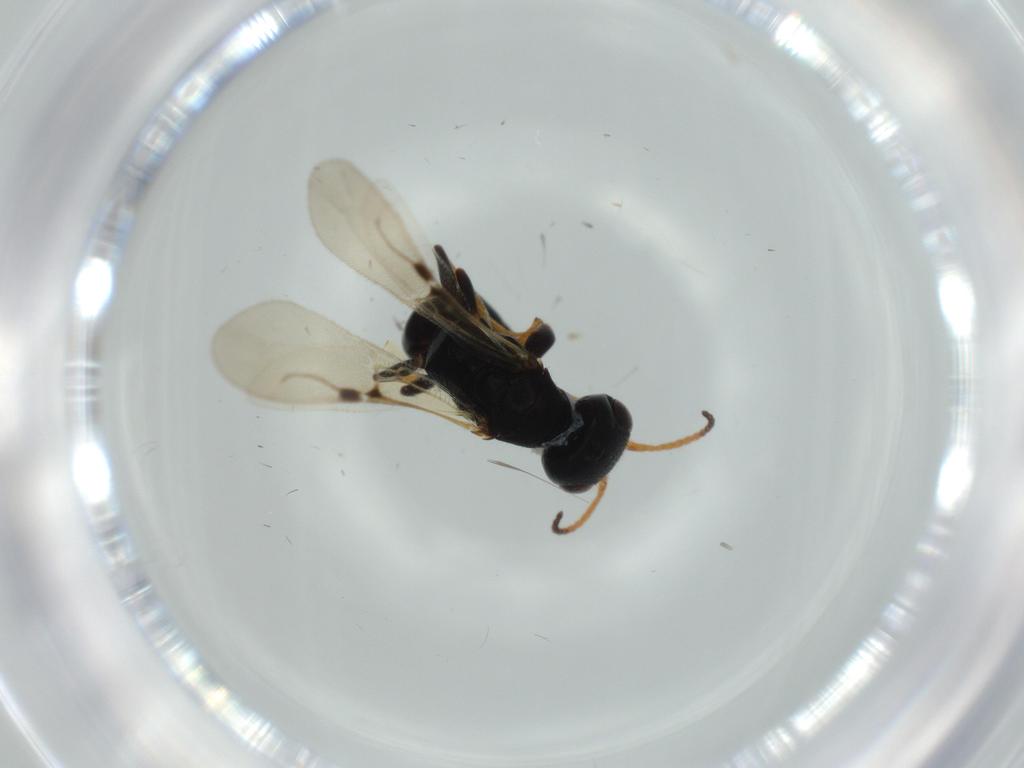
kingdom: Animalia
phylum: Arthropoda
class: Insecta
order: Hymenoptera
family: Bethylidae
